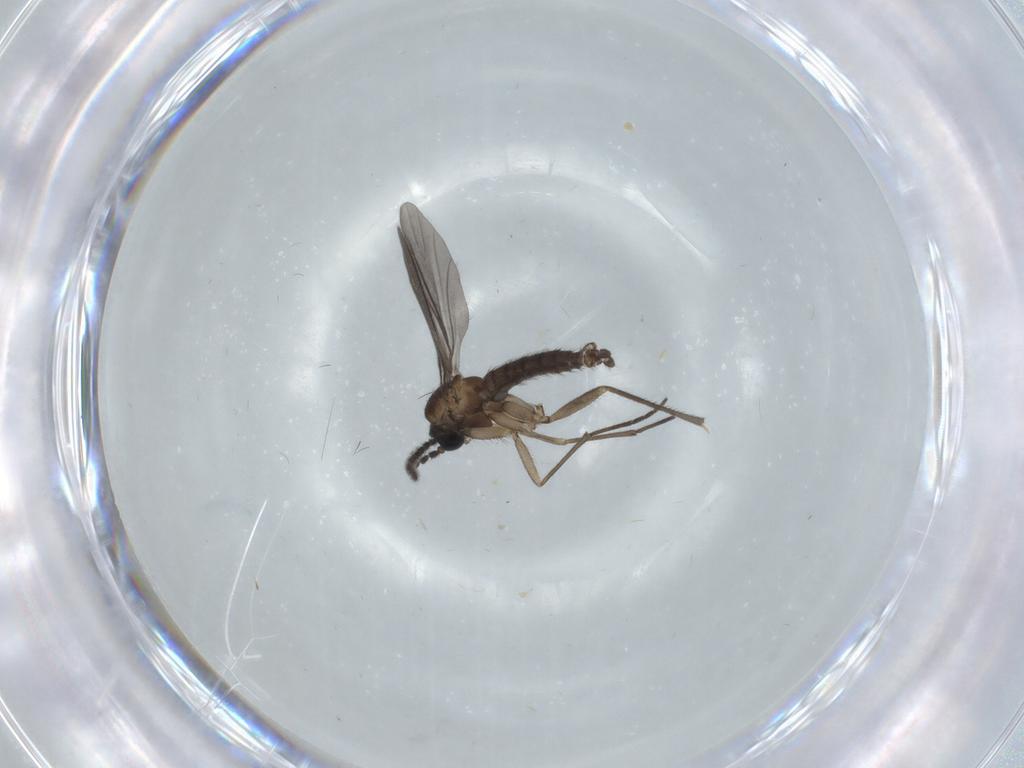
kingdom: Animalia
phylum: Arthropoda
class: Insecta
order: Diptera
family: Sciaridae
